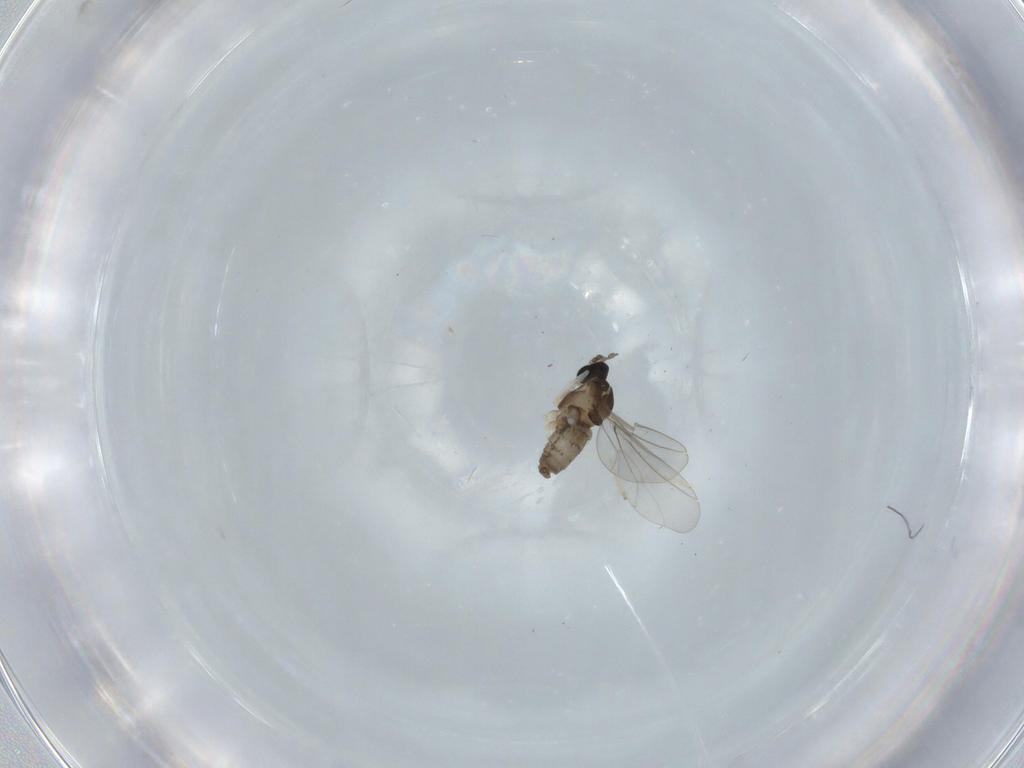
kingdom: Animalia
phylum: Arthropoda
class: Insecta
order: Diptera
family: Cecidomyiidae
